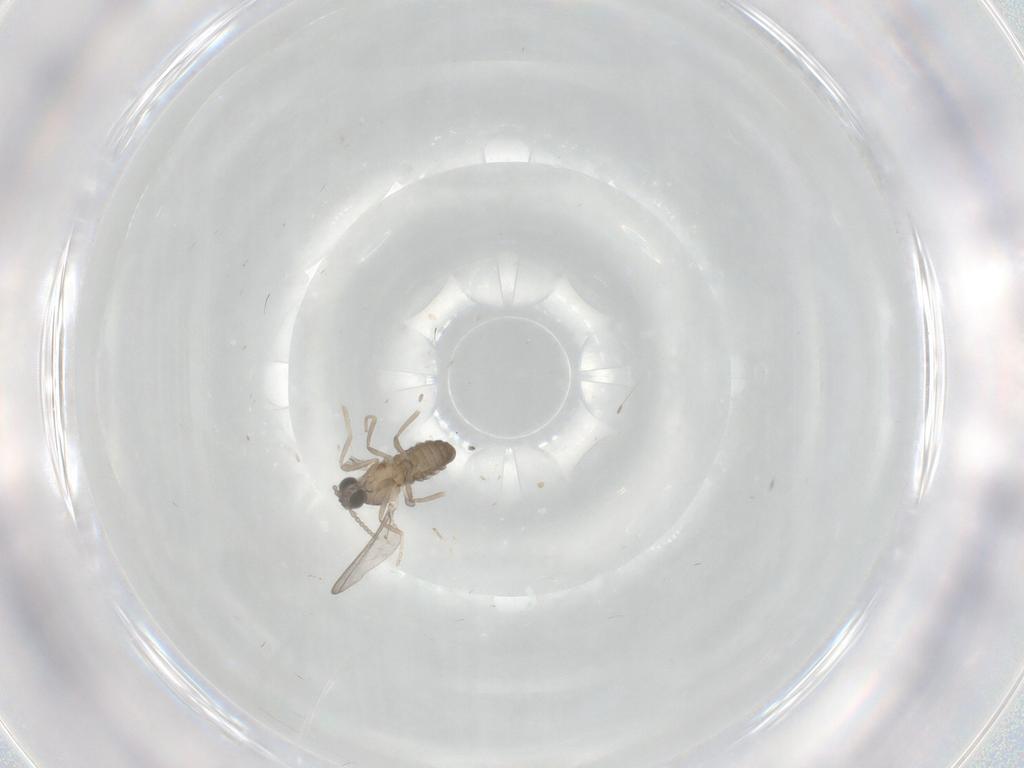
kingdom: Animalia
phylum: Arthropoda
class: Insecta
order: Diptera
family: Cecidomyiidae
